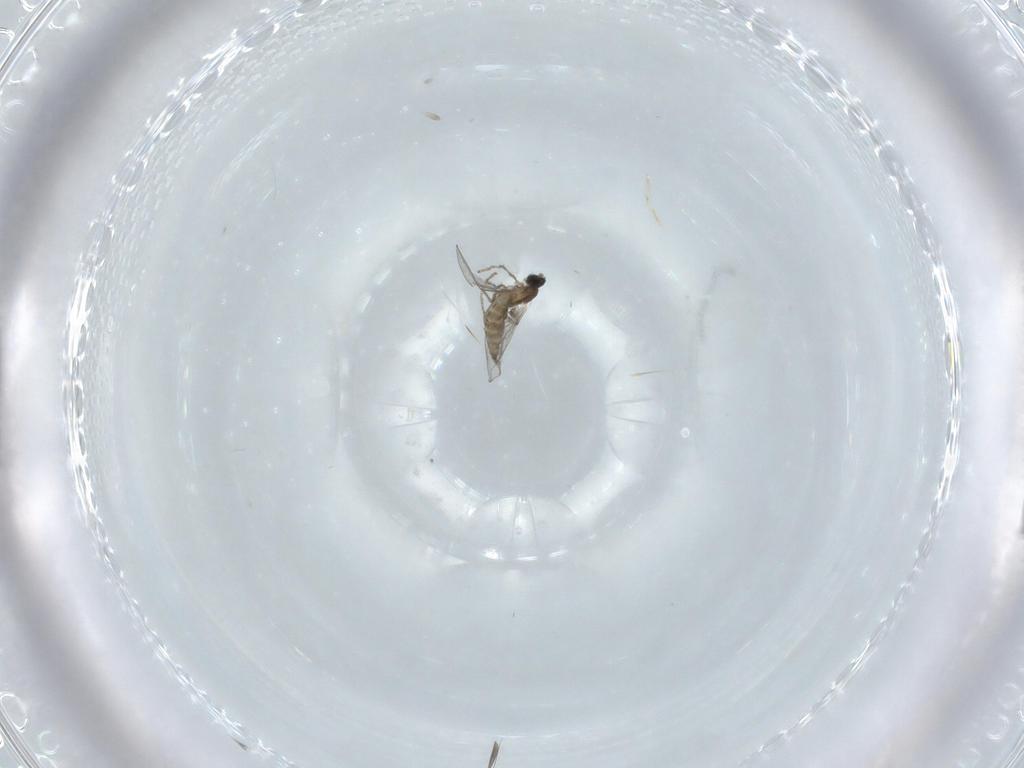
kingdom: Animalia
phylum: Arthropoda
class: Insecta
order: Diptera
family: Cecidomyiidae
